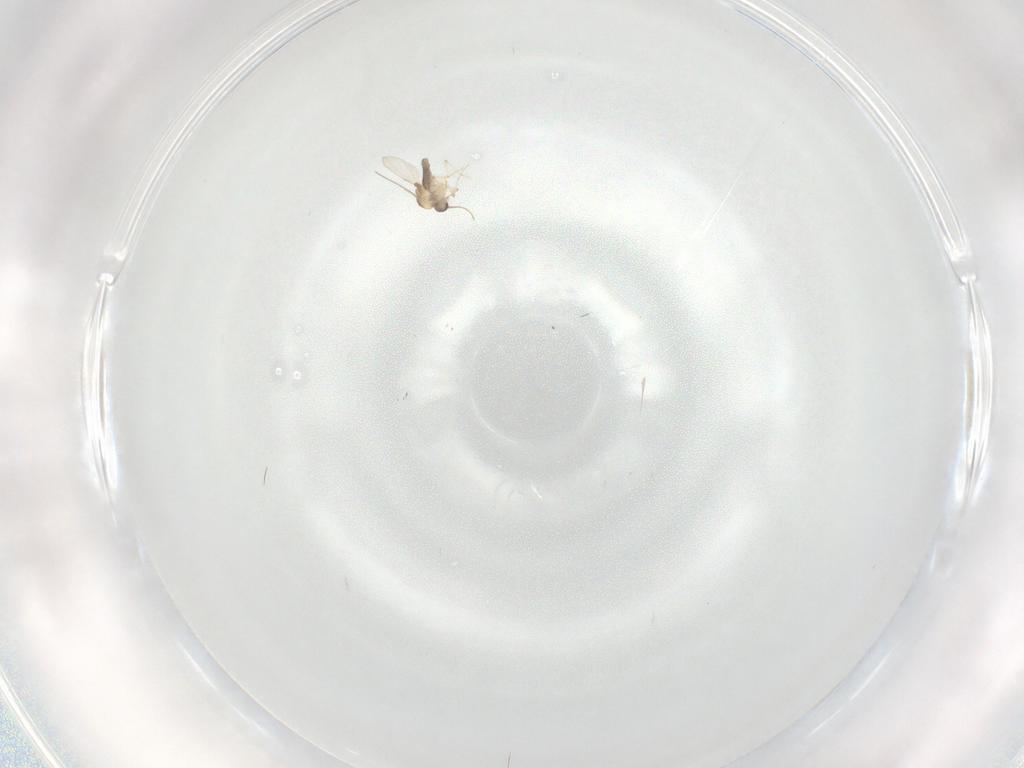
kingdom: Animalia
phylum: Arthropoda
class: Insecta
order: Diptera
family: Ceratopogonidae
